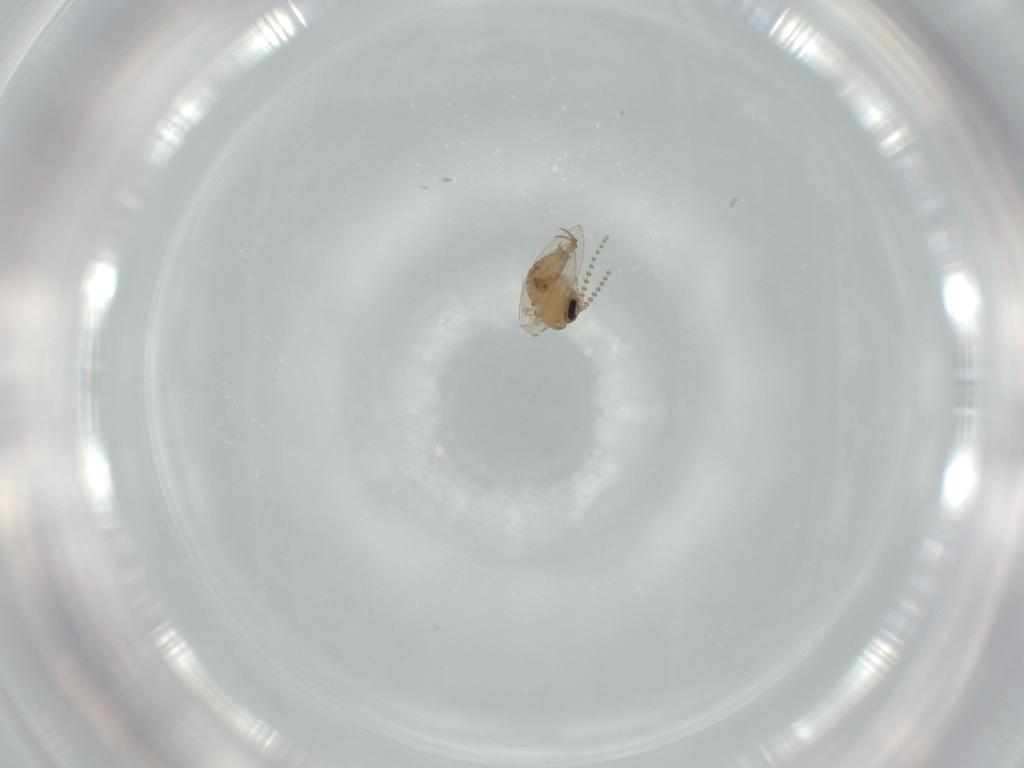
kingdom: Animalia
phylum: Arthropoda
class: Insecta
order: Diptera
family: Psychodidae
